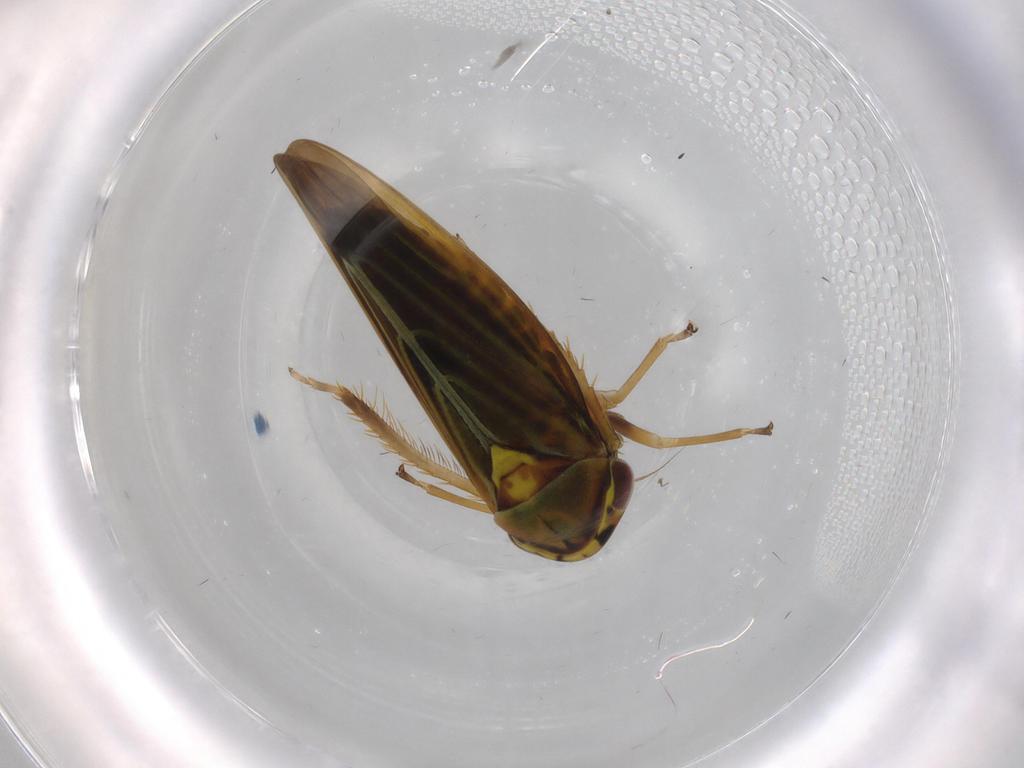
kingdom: Animalia
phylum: Arthropoda
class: Insecta
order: Hemiptera
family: Cicadellidae
